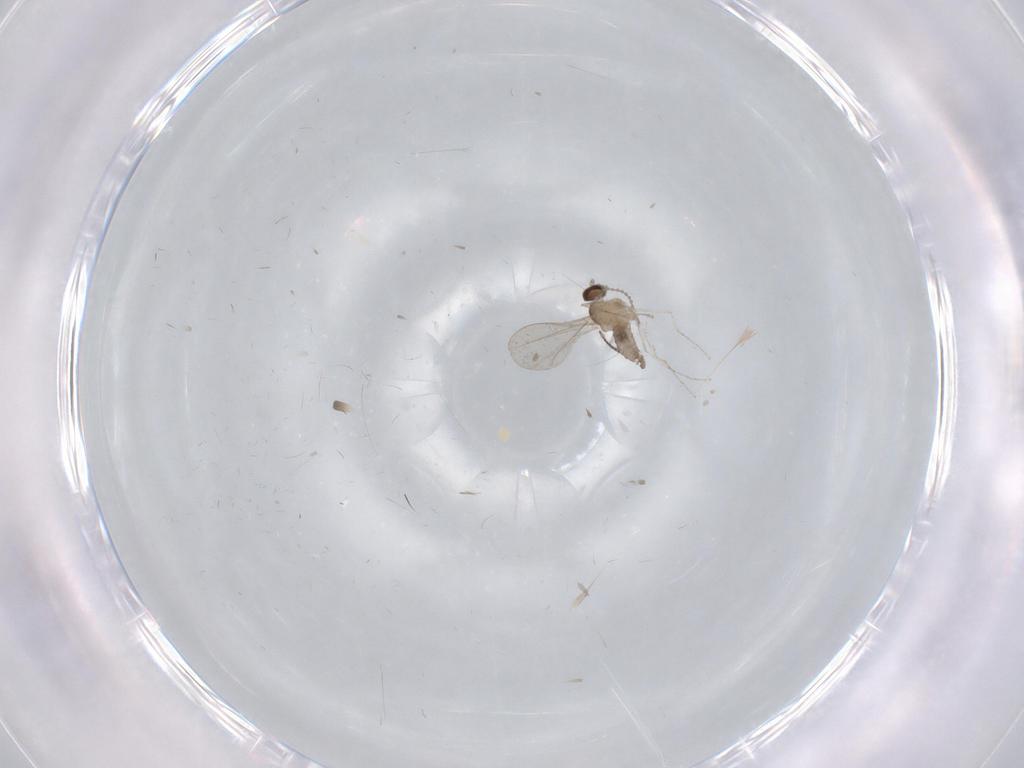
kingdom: Animalia
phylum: Arthropoda
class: Insecta
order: Diptera
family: Cecidomyiidae
